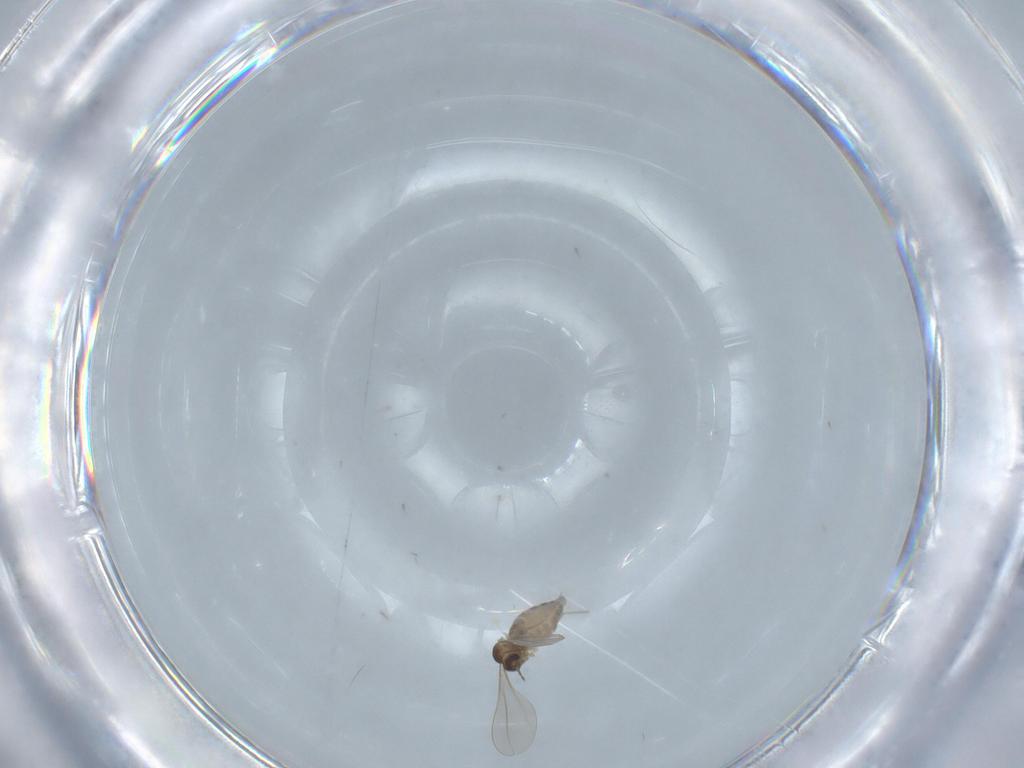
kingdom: Animalia
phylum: Arthropoda
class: Insecta
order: Diptera
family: Cecidomyiidae
